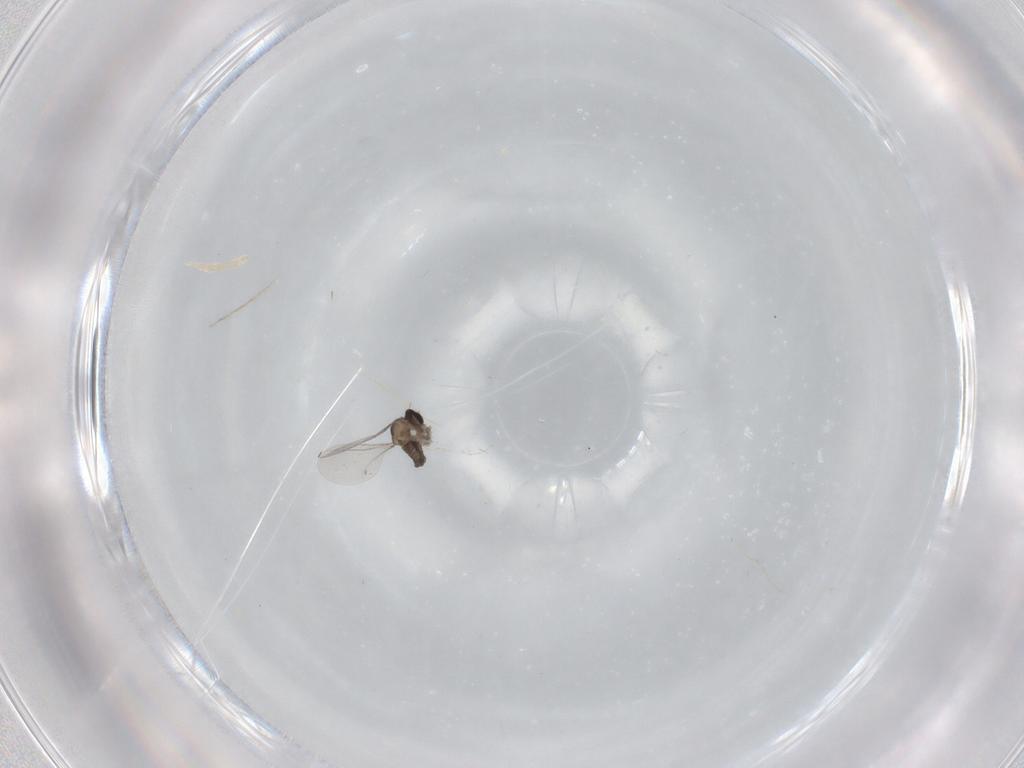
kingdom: Animalia
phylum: Arthropoda
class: Insecta
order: Diptera
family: Cecidomyiidae
